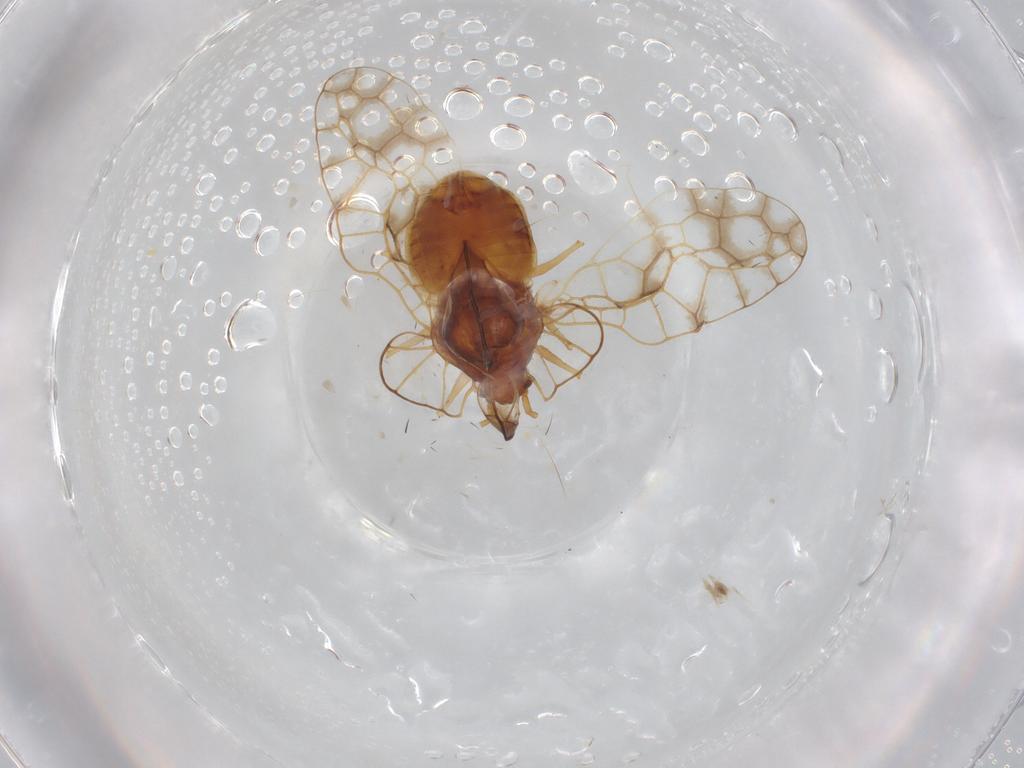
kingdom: Animalia
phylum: Arthropoda
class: Insecta
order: Hemiptera
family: Tingidae
